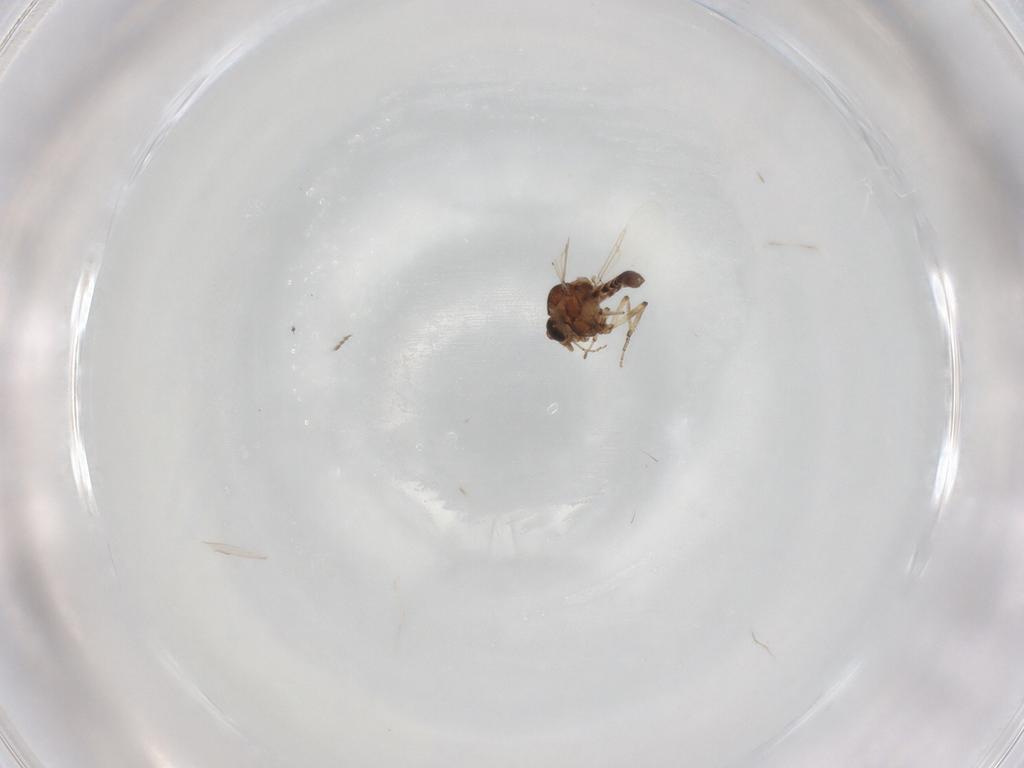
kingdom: Animalia
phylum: Arthropoda
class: Insecta
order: Diptera
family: Ceratopogonidae
